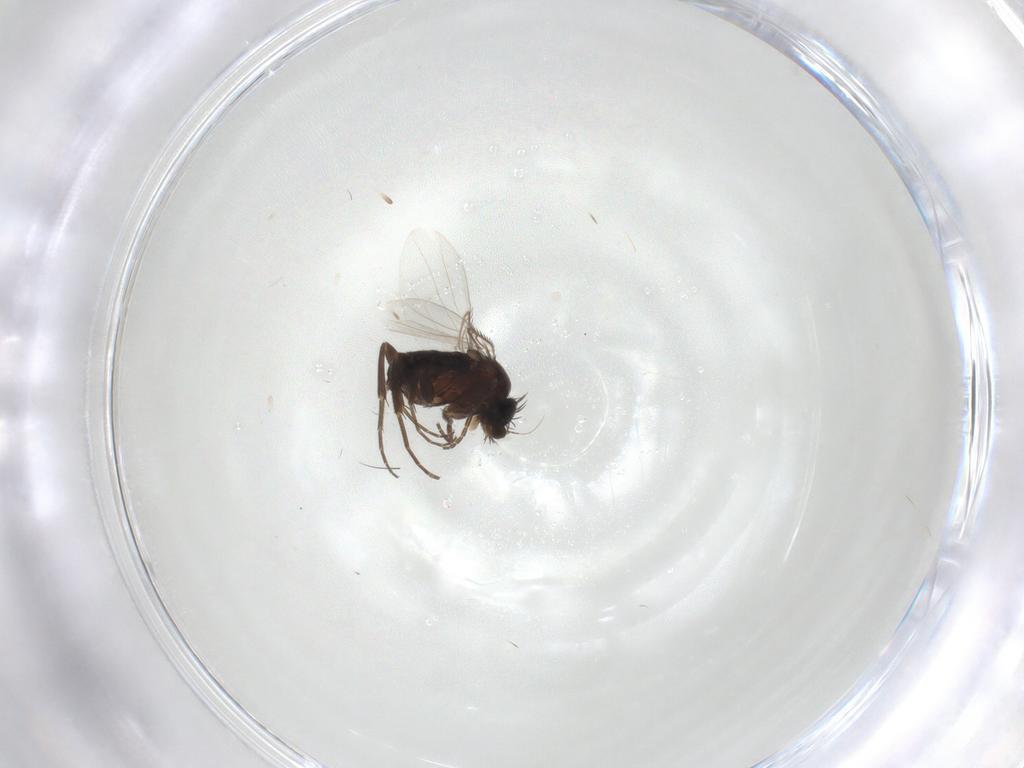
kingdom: Animalia
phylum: Arthropoda
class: Insecta
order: Diptera
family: Phoridae
